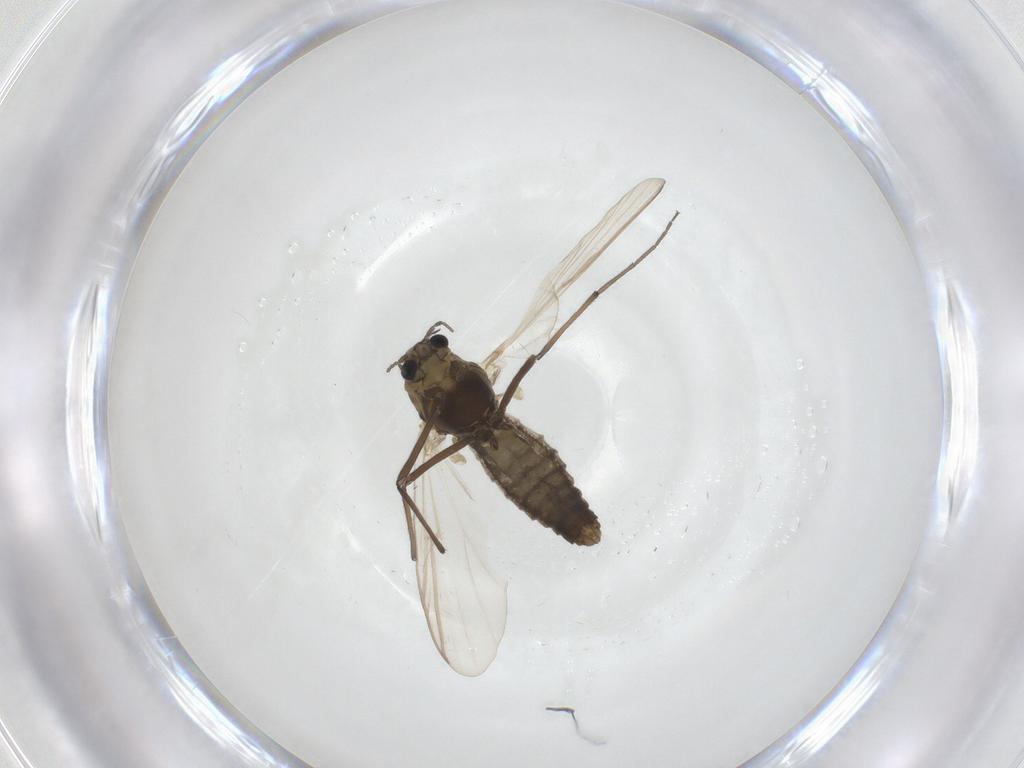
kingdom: Animalia
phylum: Arthropoda
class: Insecta
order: Diptera
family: Chironomidae
